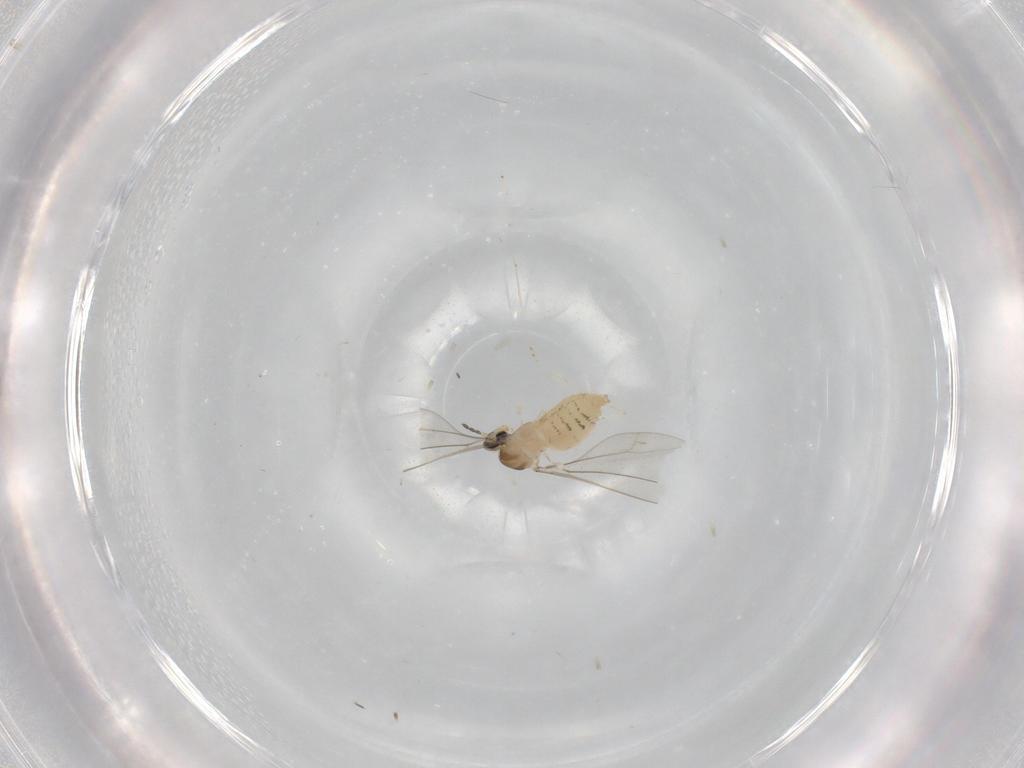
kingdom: Animalia
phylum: Arthropoda
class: Insecta
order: Diptera
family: Cecidomyiidae
